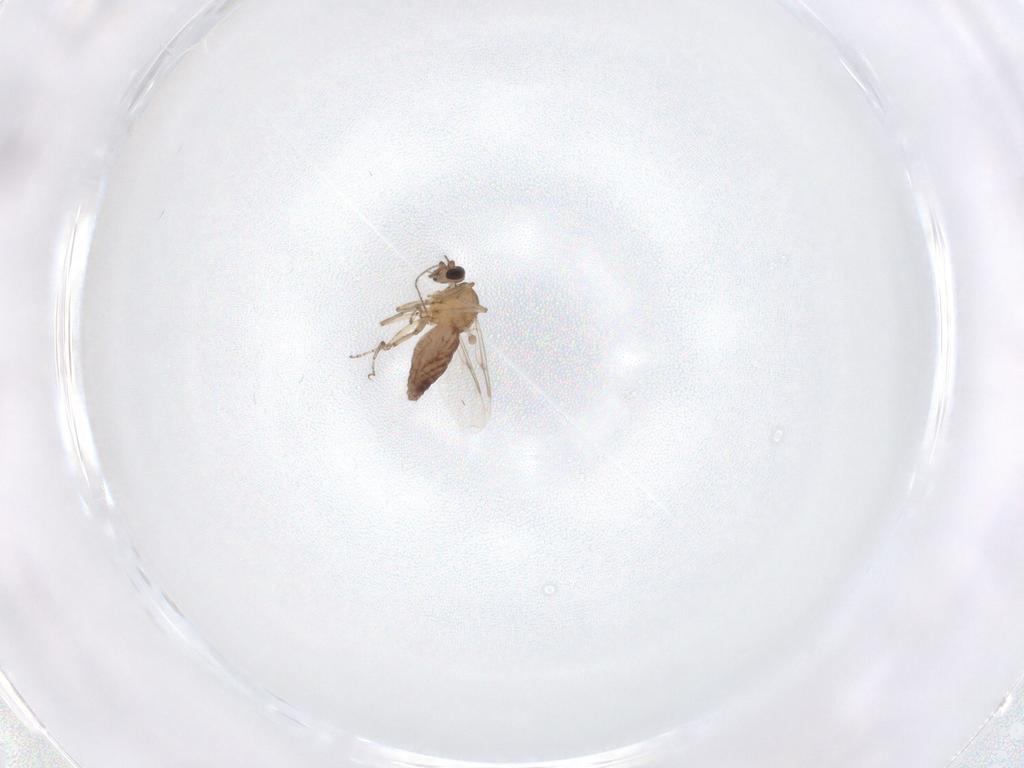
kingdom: Animalia
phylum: Arthropoda
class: Insecta
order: Diptera
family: Ceratopogonidae
